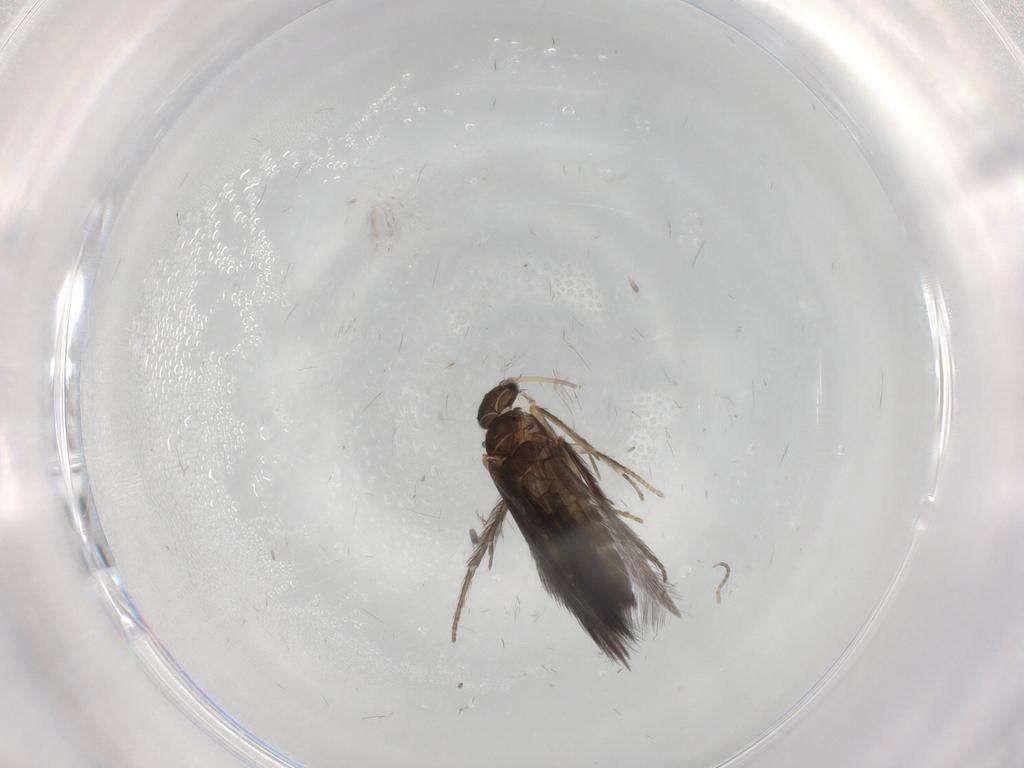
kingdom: Animalia
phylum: Arthropoda
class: Insecta
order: Trichoptera
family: Hydroptilidae
